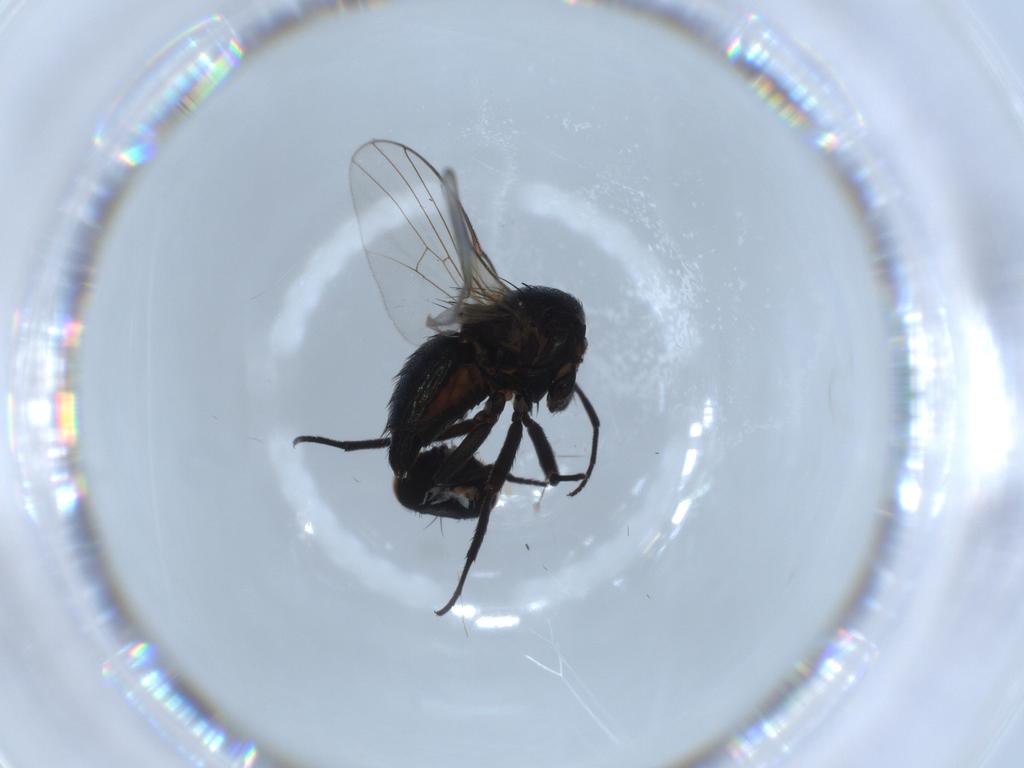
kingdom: Animalia
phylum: Arthropoda
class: Insecta
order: Diptera
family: Agromyzidae
